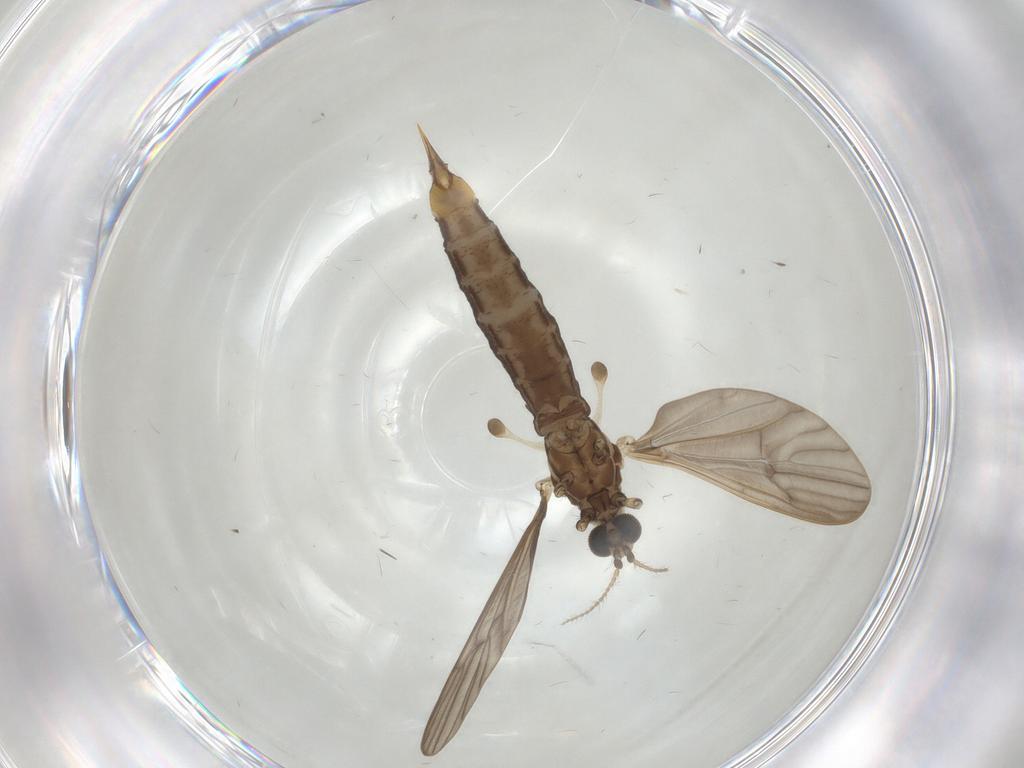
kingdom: Animalia
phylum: Arthropoda
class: Insecta
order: Diptera
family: Limoniidae
